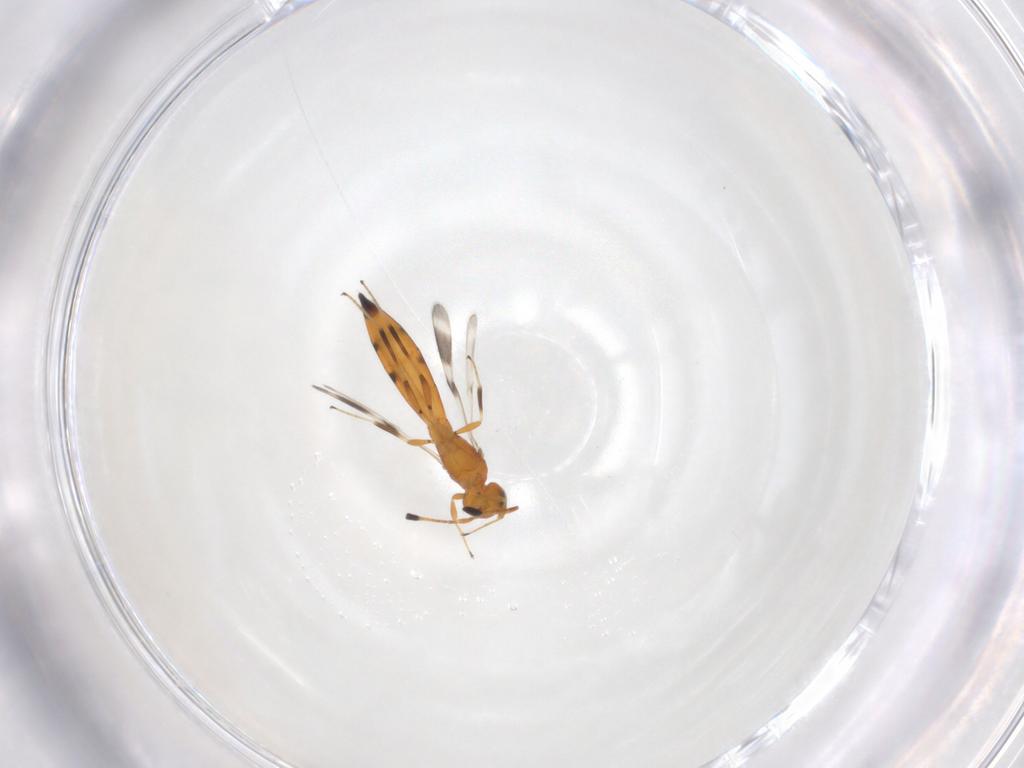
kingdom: Animalia
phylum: Arthropoda
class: Insecta
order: Hymenoptera
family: Scelionidae
